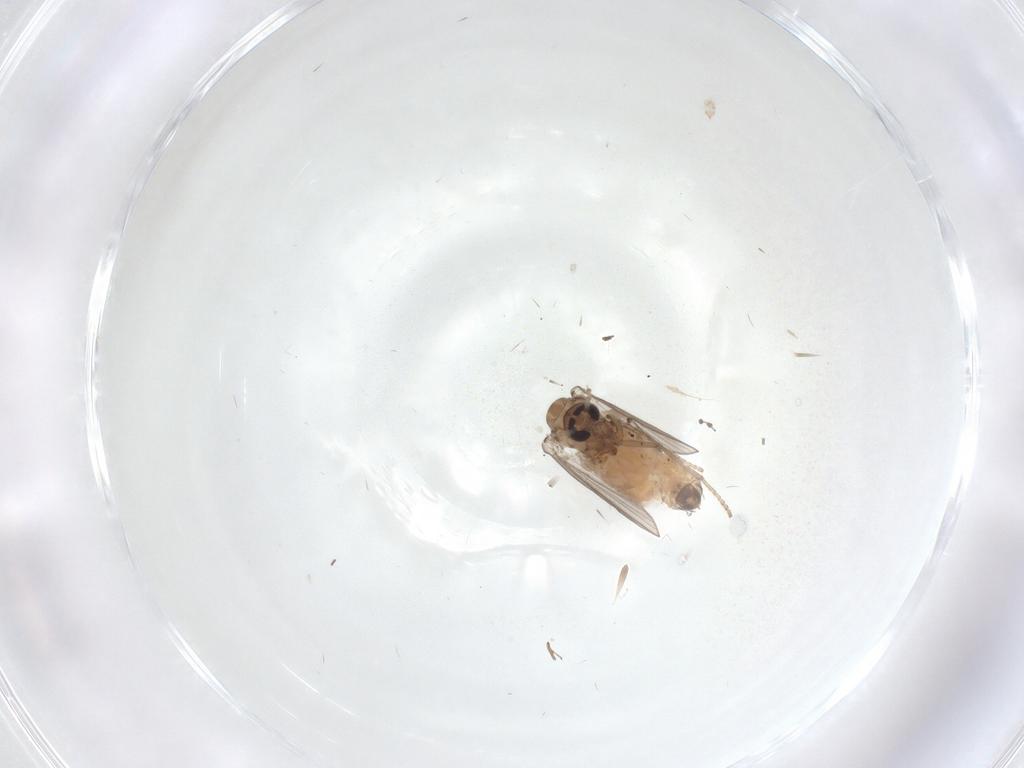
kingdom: Animalia
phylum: Arthropoda
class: Insecta
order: Diptera
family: Psychodidae
